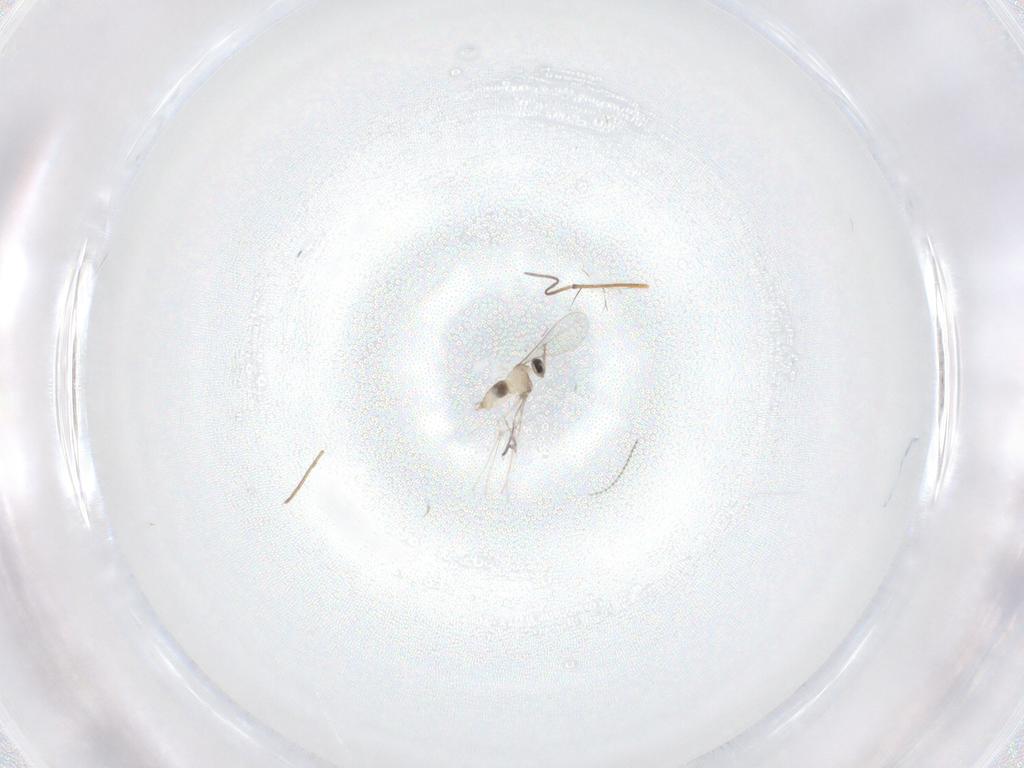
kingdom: Animalia
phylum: Arthropoda
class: Insecta
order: Diptera
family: Cecidomyiidae
